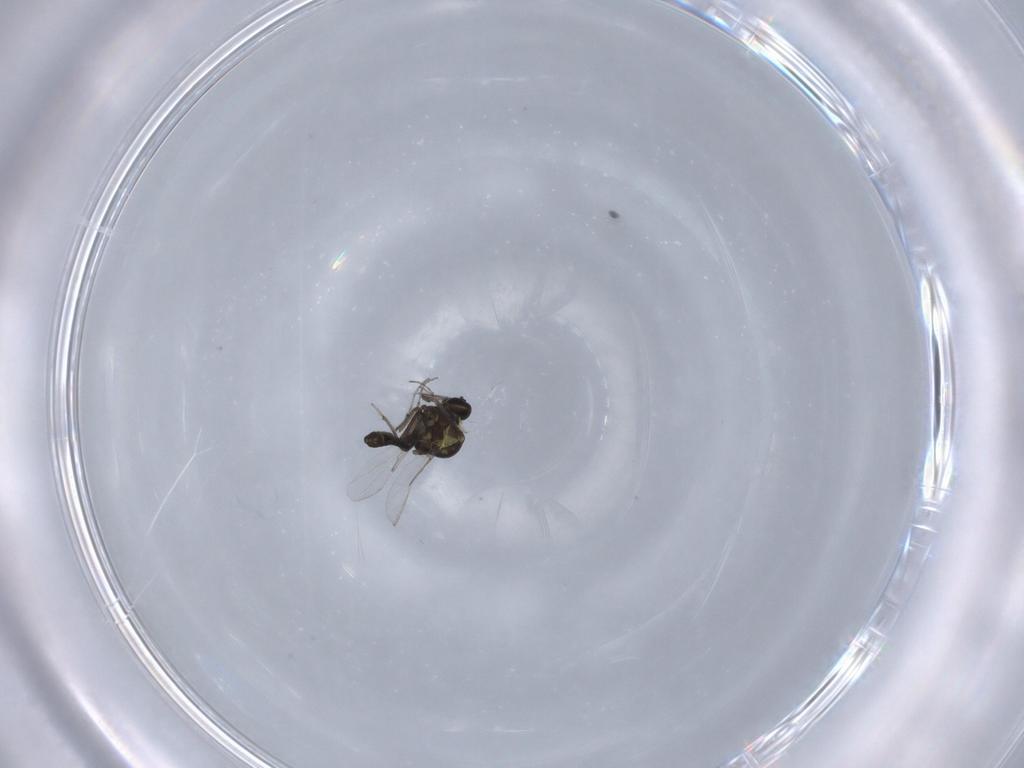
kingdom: Animalia
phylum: Arthropoda
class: Insecta
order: Diptera
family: Ceratopogonidae
